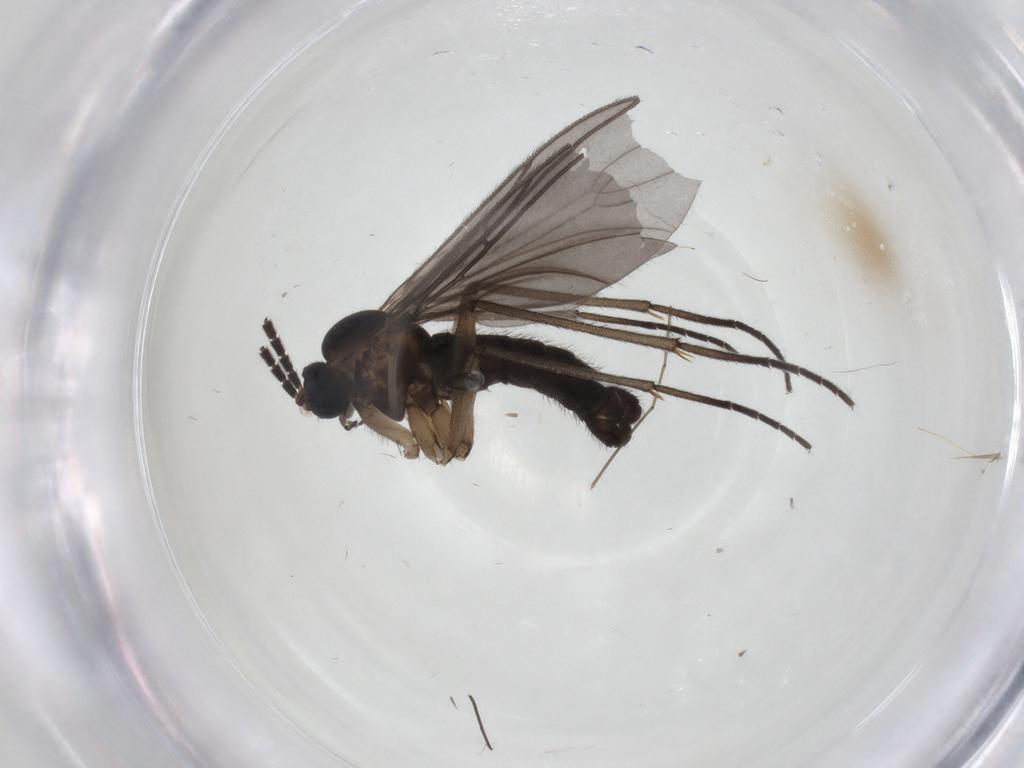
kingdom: Animalia
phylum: Arthropoda
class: Insecta
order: Diptera
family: Sciaridae
